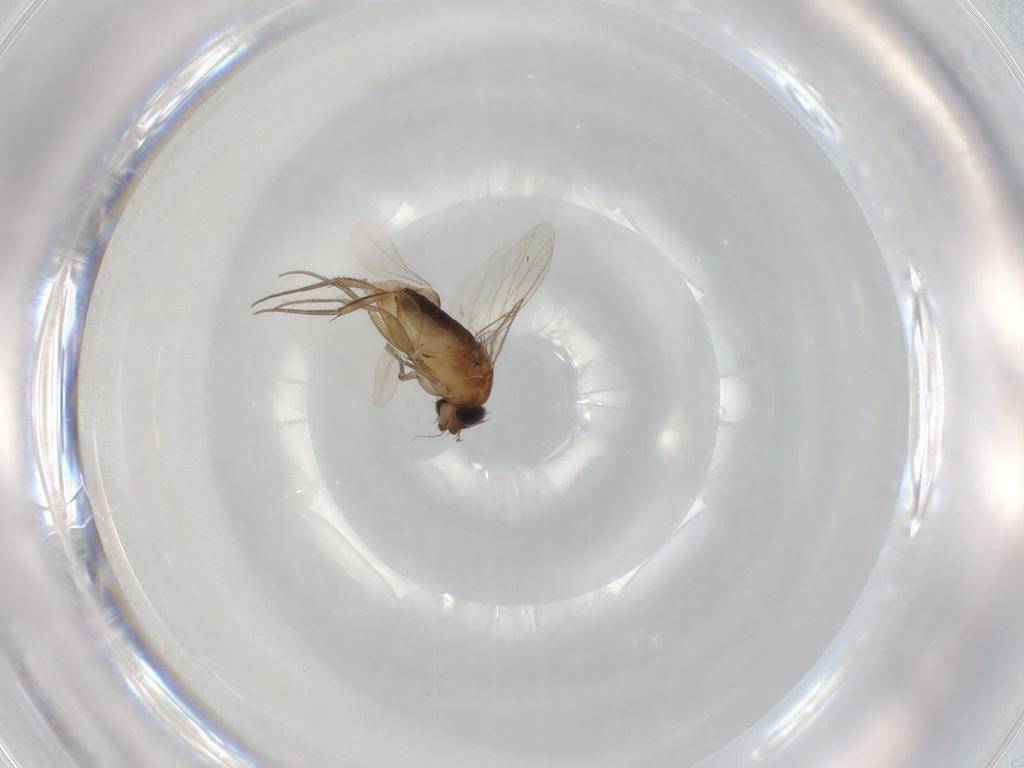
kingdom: Animalia
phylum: Arthropoda
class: Insecta
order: Diptera
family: Phoridae
